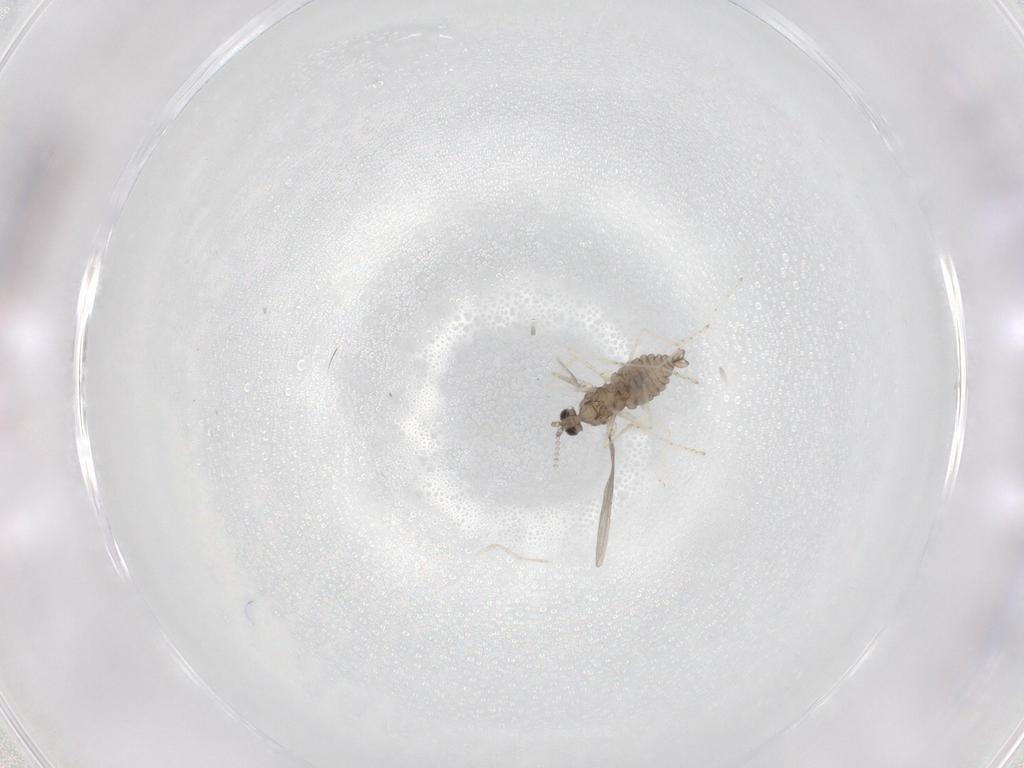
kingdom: Animalia
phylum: Arthropoda
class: Insecta
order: Diptera
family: Cecidomyiidae
